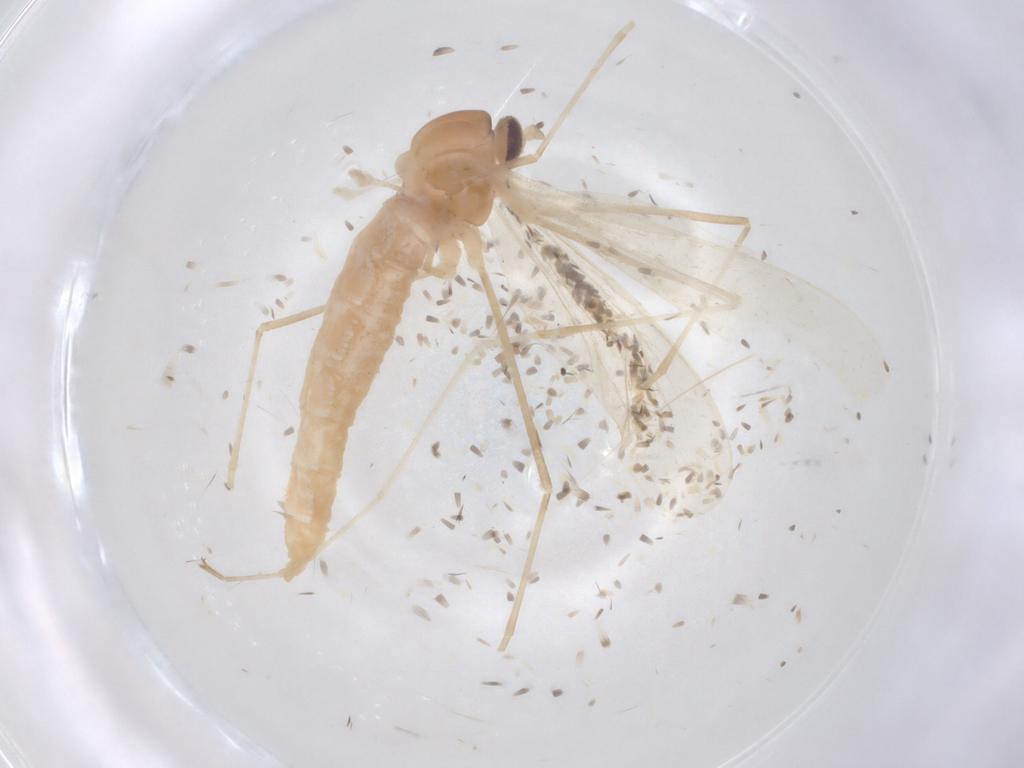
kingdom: Animalia
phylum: Arthropoda
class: Insecta
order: Diptera
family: Cecidomyiidae
